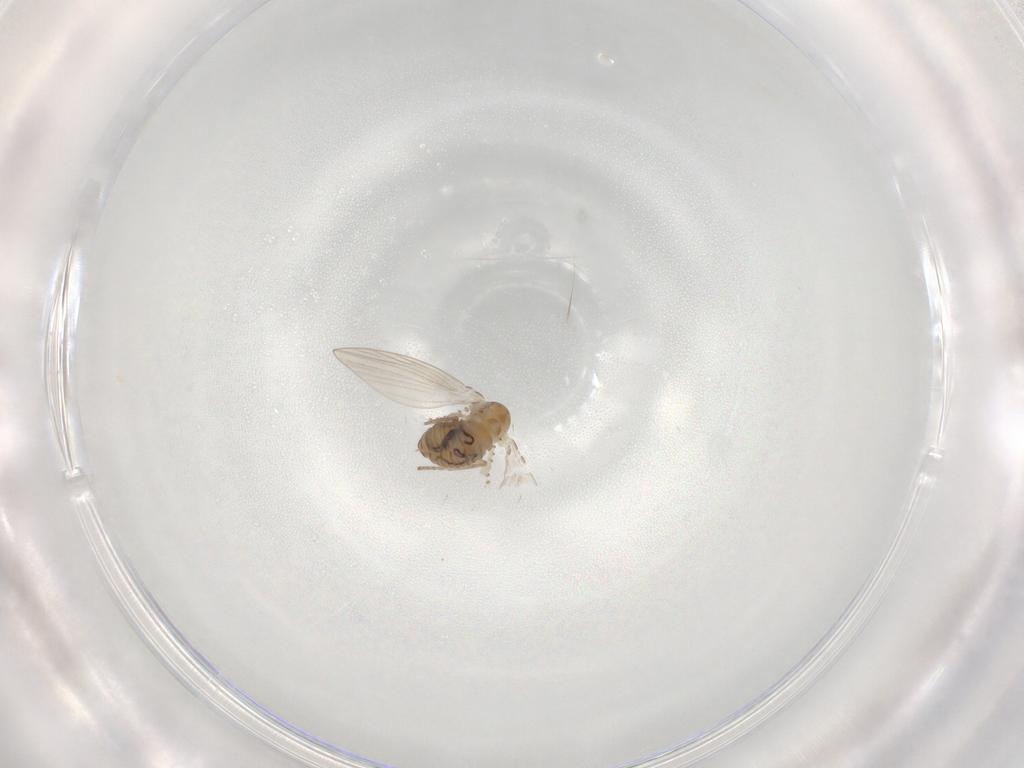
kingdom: Animalia
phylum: Arthropoda
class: Insecta
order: Diptera
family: Psychodidae
